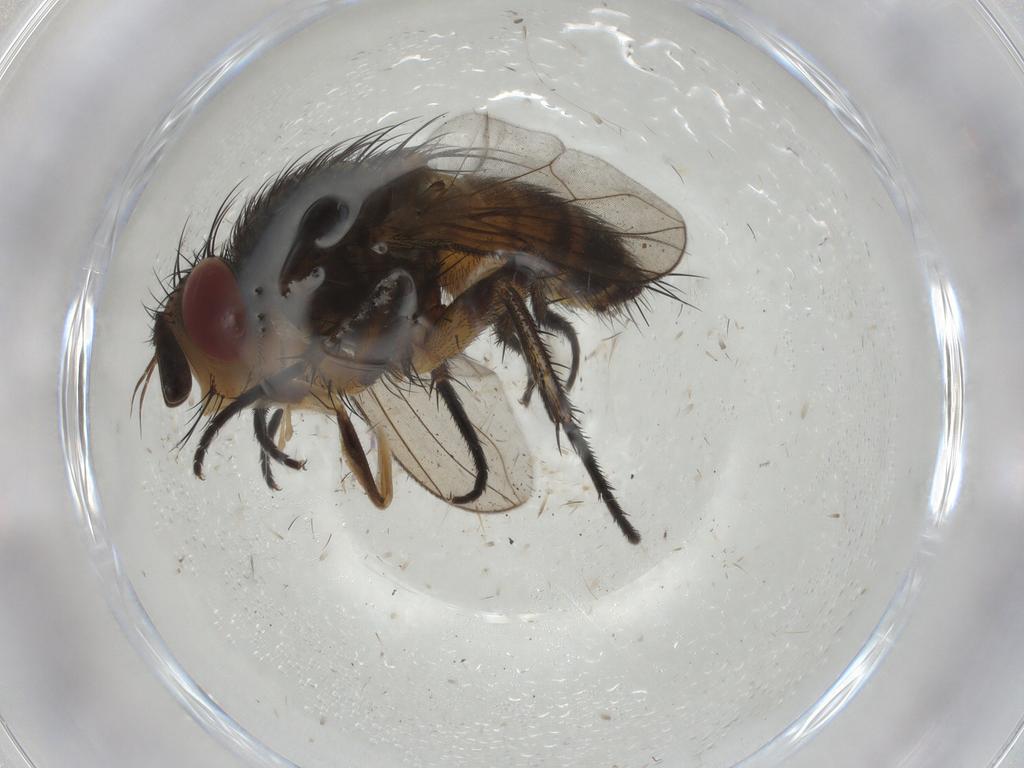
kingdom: Animalia
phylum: Arthropoda
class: Insecta
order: Diptera
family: Tachinidae
